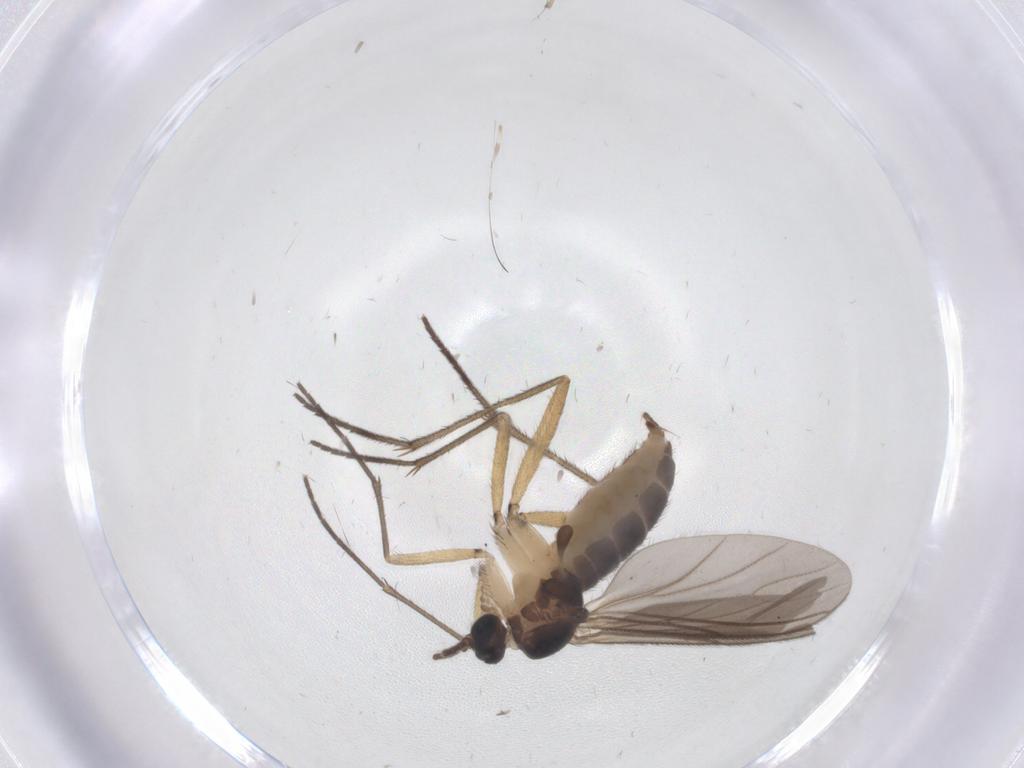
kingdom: Animalia
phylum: Arthropoda
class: Insecta
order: Diptera
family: Sciaridae
